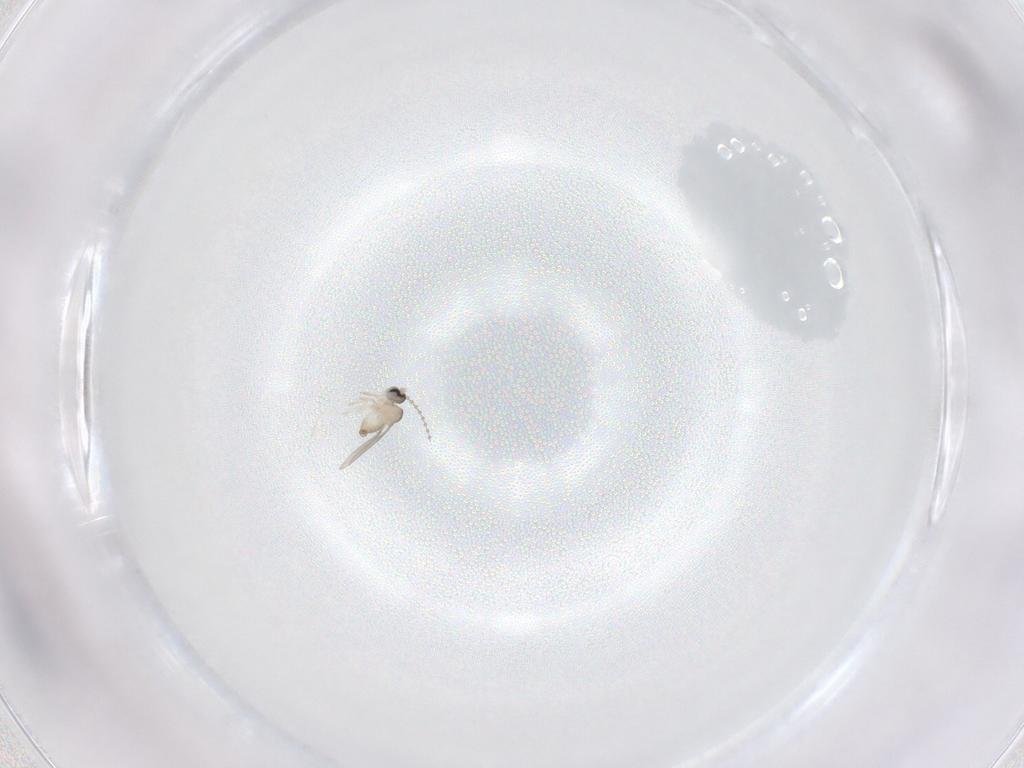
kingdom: Animalia
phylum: Arthropoda
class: Insecta
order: Diptera
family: Cecidomyiidae
